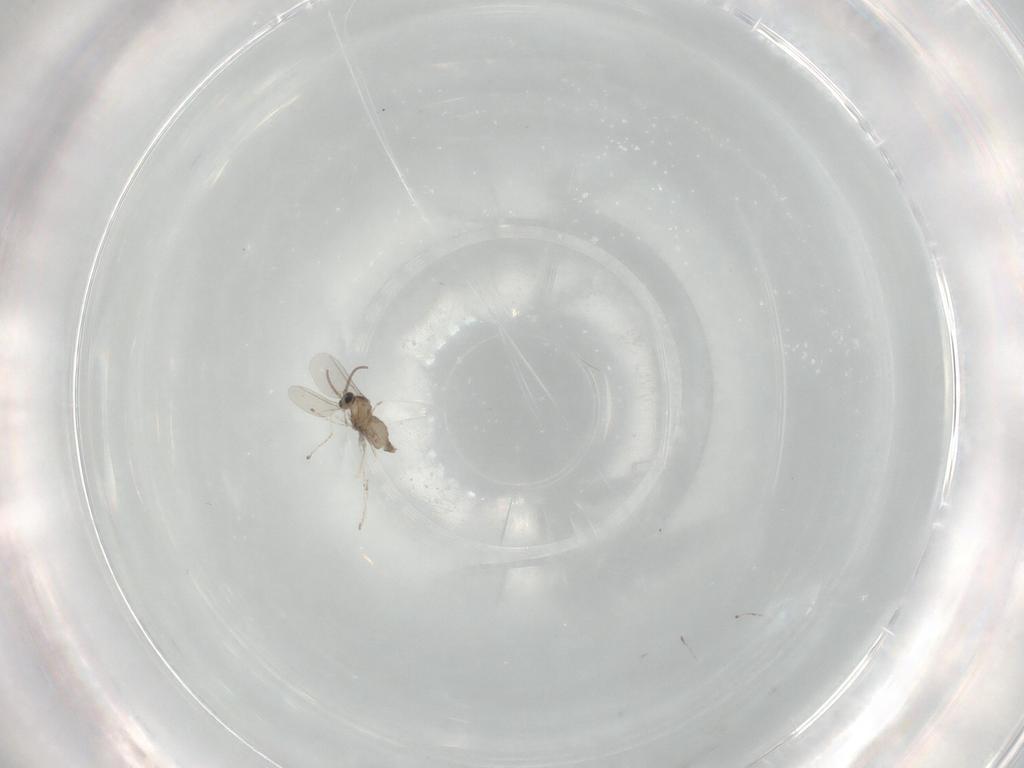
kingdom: Animalia
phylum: Arthropoda
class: Insecta
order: Diptera
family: Cecidomyiidae
